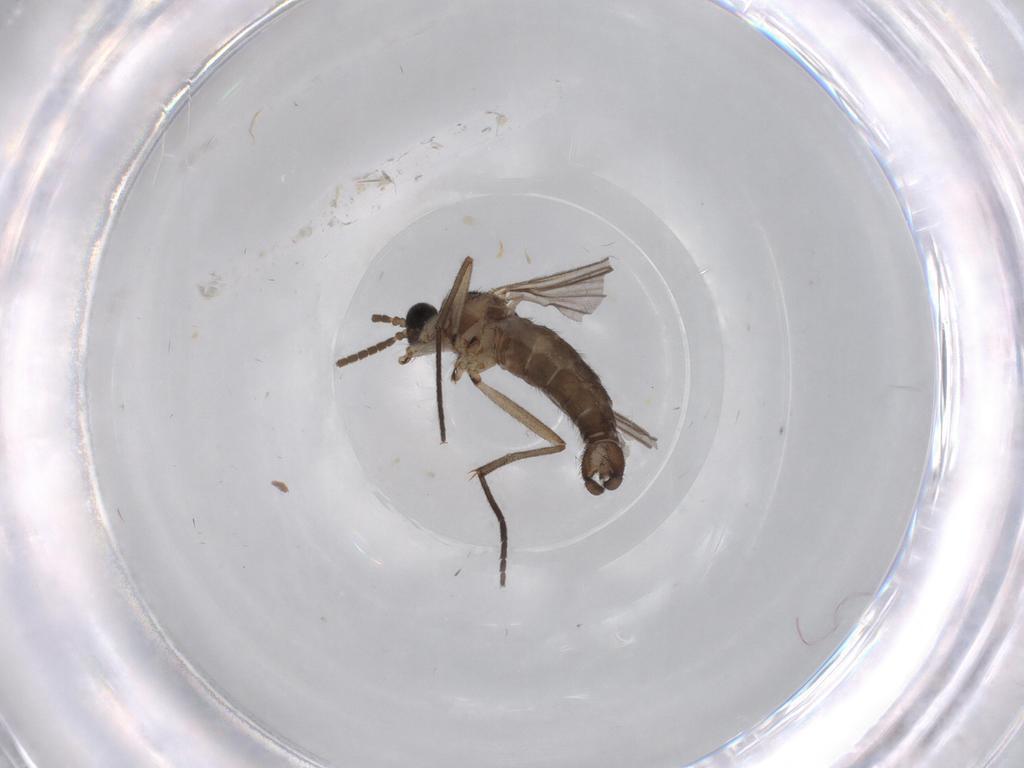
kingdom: Animalia
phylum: Arthropoda
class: Insecta
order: Diptera
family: Limoniidae
